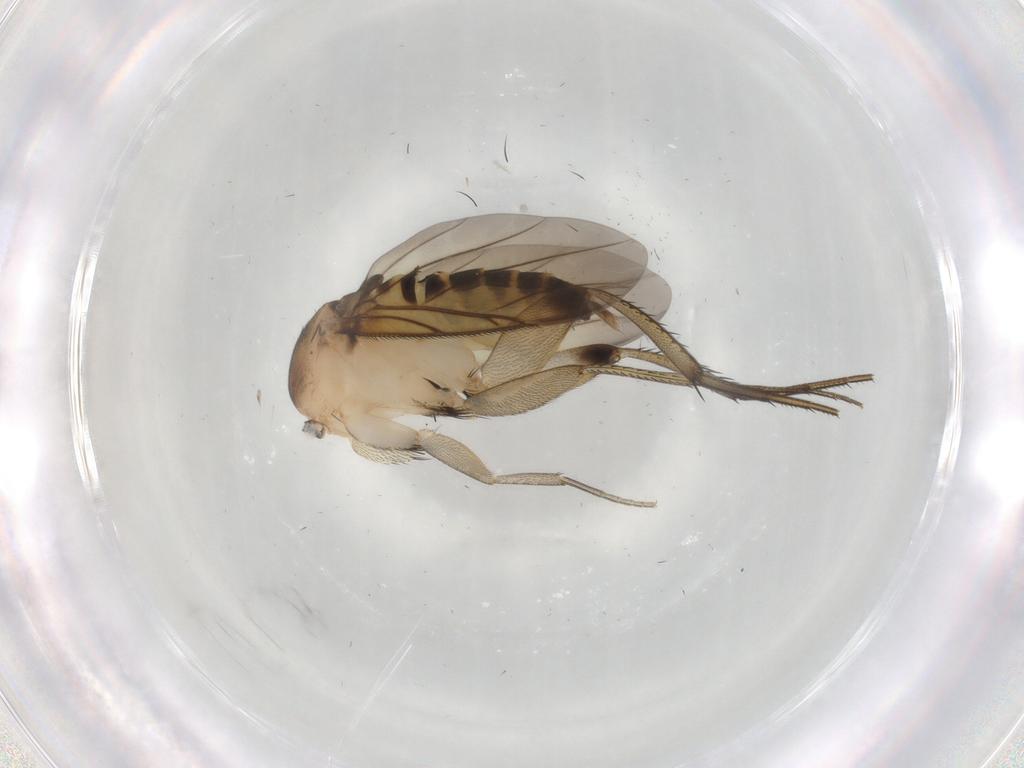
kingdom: Animalia
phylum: Arthropoda
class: Insecta
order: Diptera
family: Phoridae
